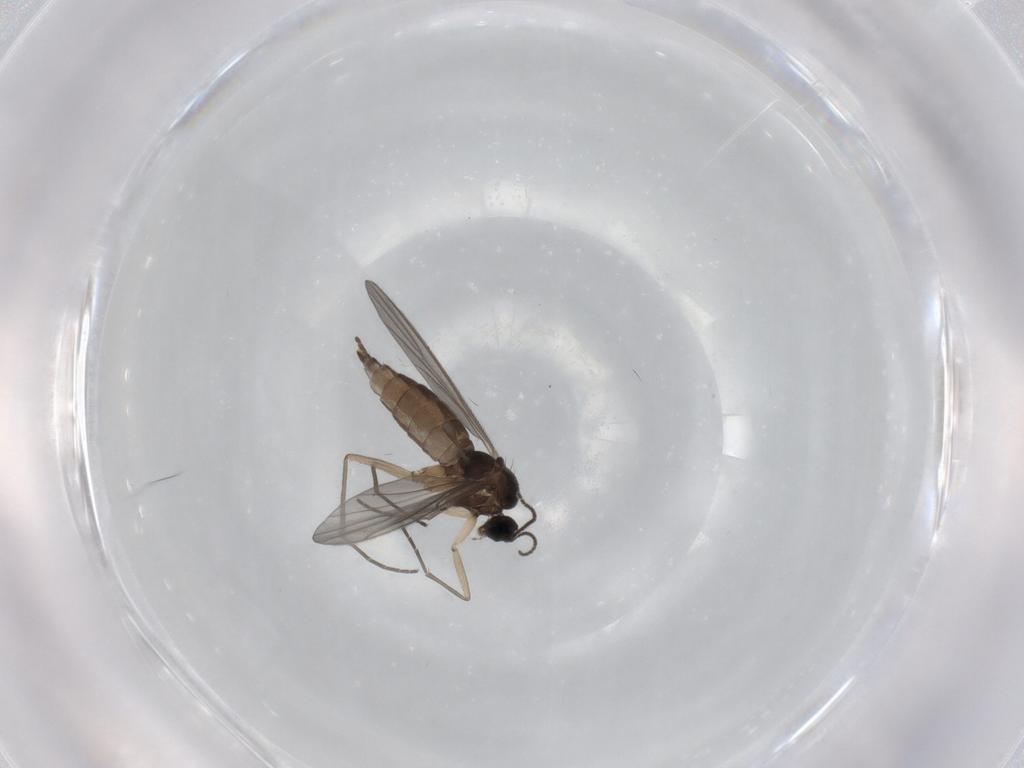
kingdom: Animalia
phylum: Arthropoda
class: Insecta
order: Diptera
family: Sciaridae
